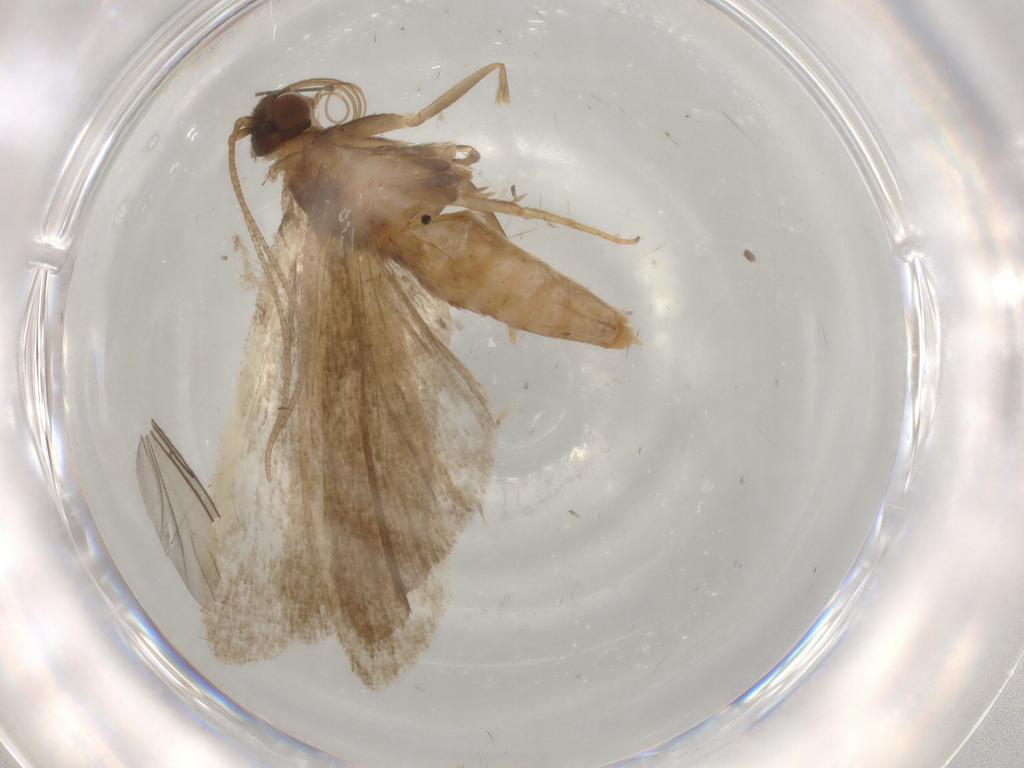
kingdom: Animalia
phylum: Arthropoda
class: Insecta
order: Lepidoptera
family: Noctuidae
